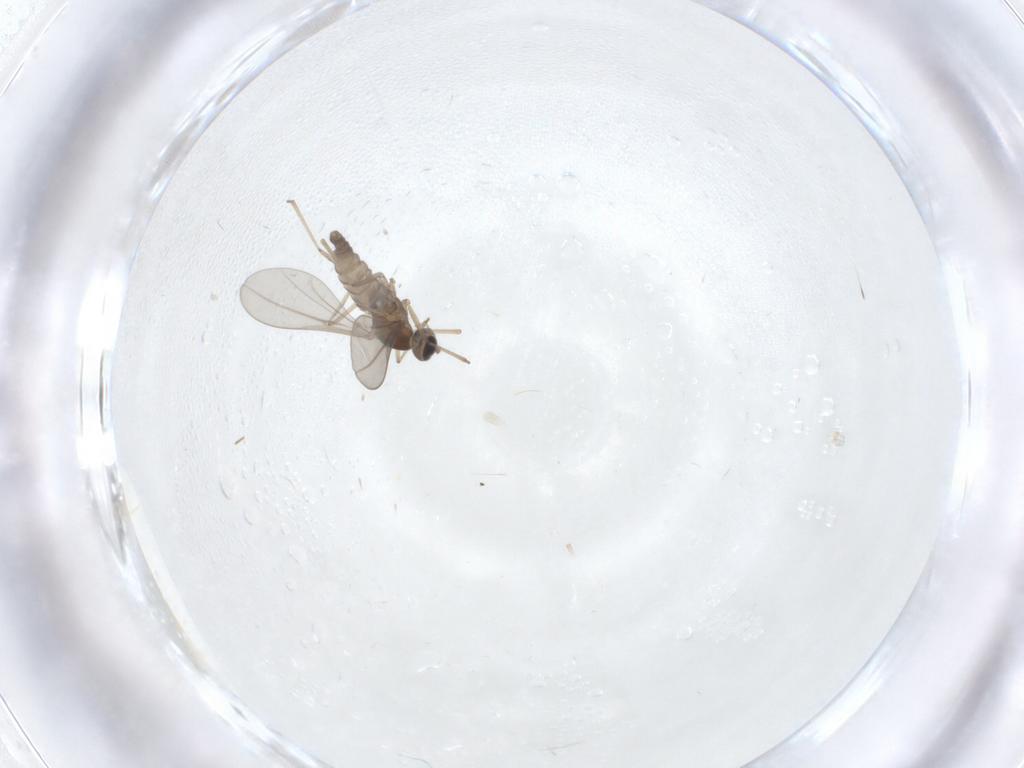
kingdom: Animalia
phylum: Arthropoda
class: Insecta
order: Diptera
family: Cecidomyiidae
